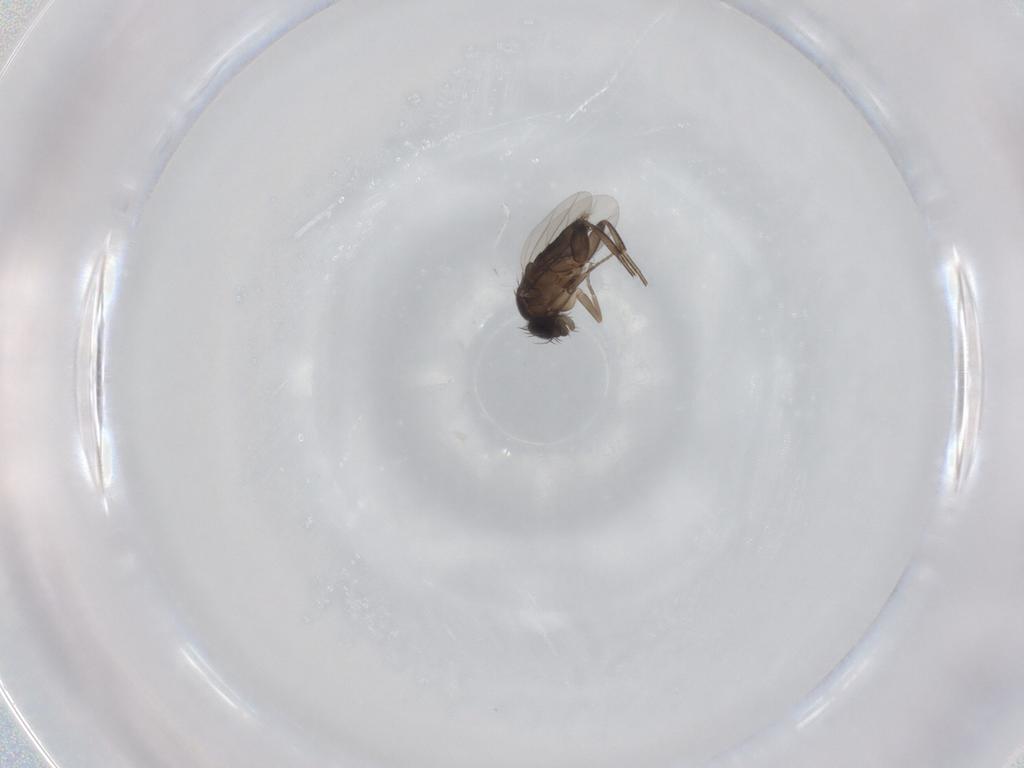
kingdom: Animalia
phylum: Arthropoda
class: Insecta
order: Diptera
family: Phoridae
